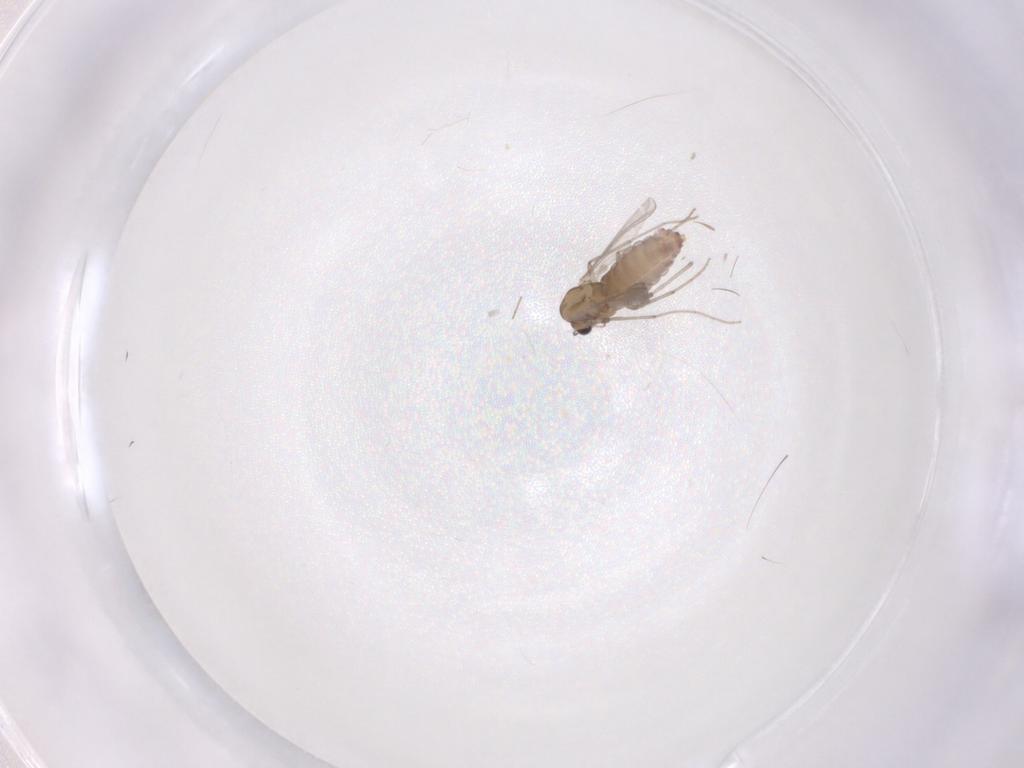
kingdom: Animalia
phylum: Arthropoda
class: Insecta
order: Diptera
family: Chironomidae
